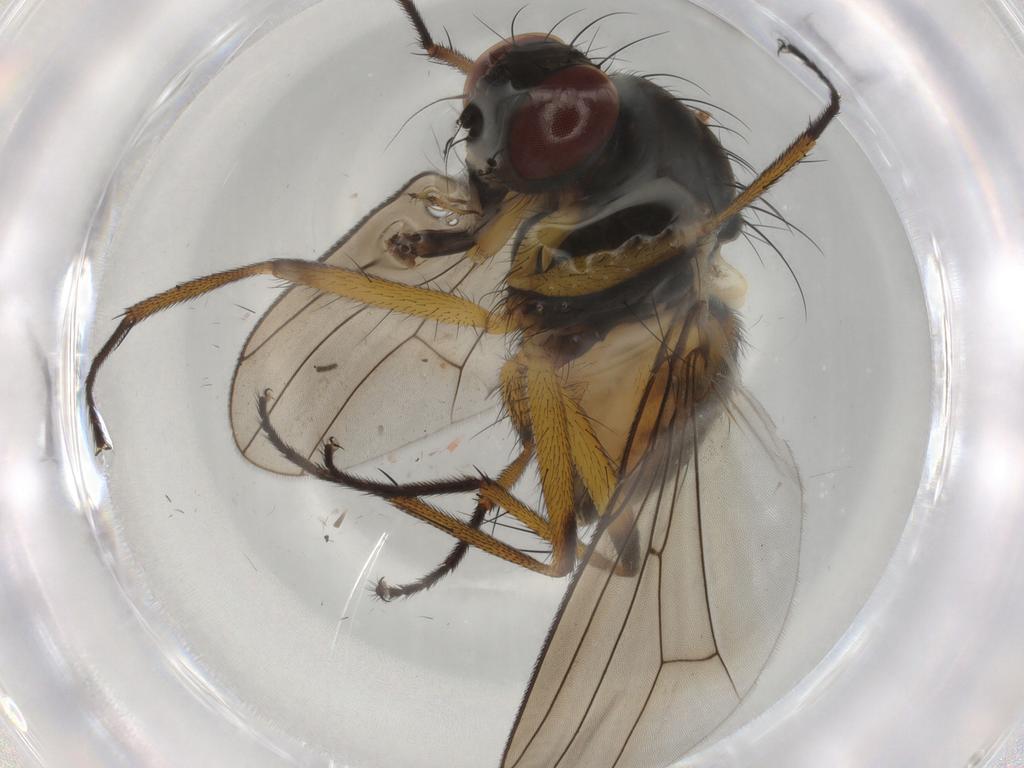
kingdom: Animalia
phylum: Arthropoda
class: Insecta
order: Diptera
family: Muscidae
